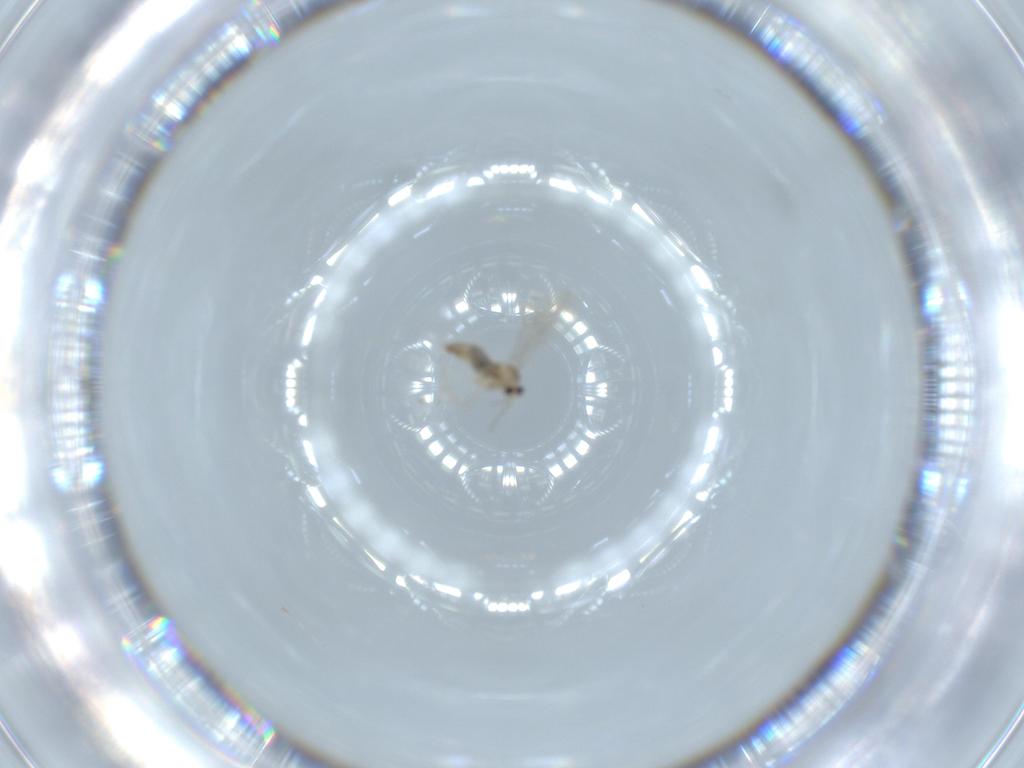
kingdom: Animalia
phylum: Arthropoda
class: Insecta
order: Diptera
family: Cecidomyiidae
